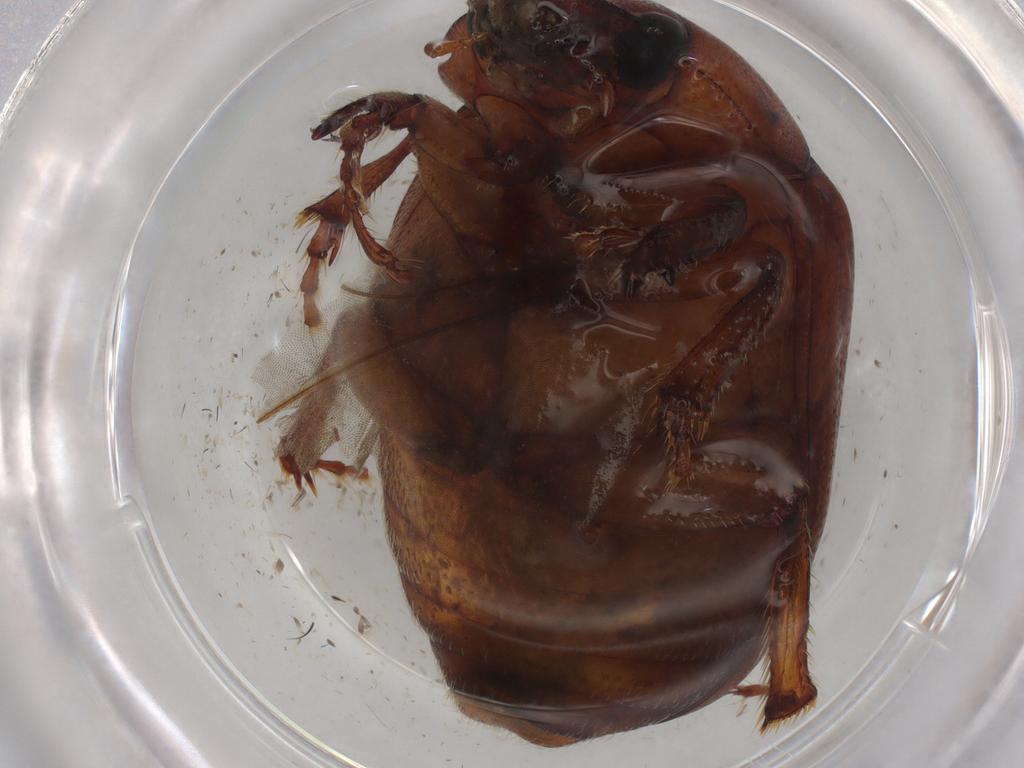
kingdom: Animalia
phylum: Arthropoda
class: Insecta
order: Coleoptera
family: Scarabaeidae
